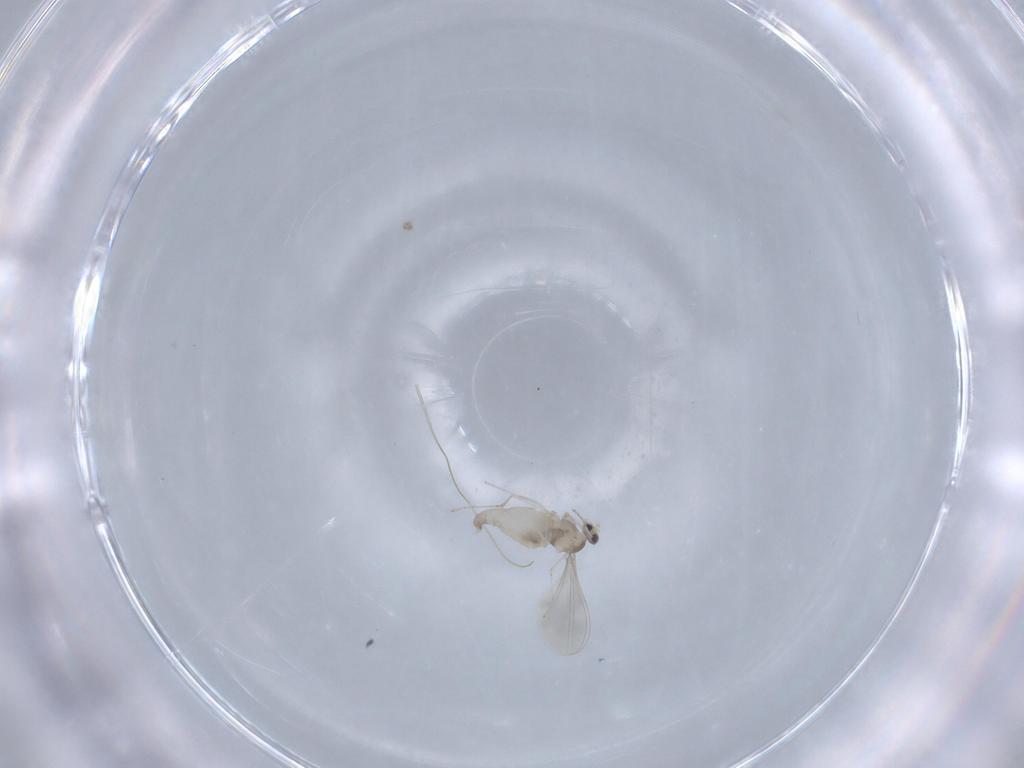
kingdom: Animalia
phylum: Arthropoda
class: Insecta
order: Diptera
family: Cecidomyiidae
